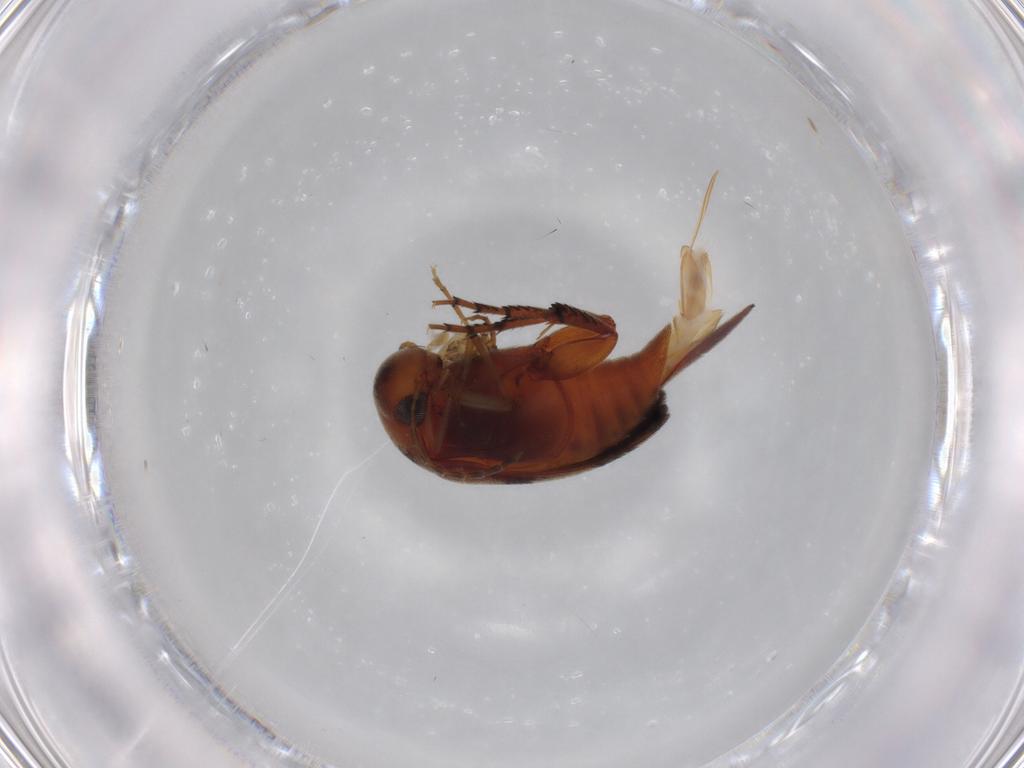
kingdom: Animalia
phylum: Arthropoda
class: Insecta
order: Coleoptera
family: Mordellidae
